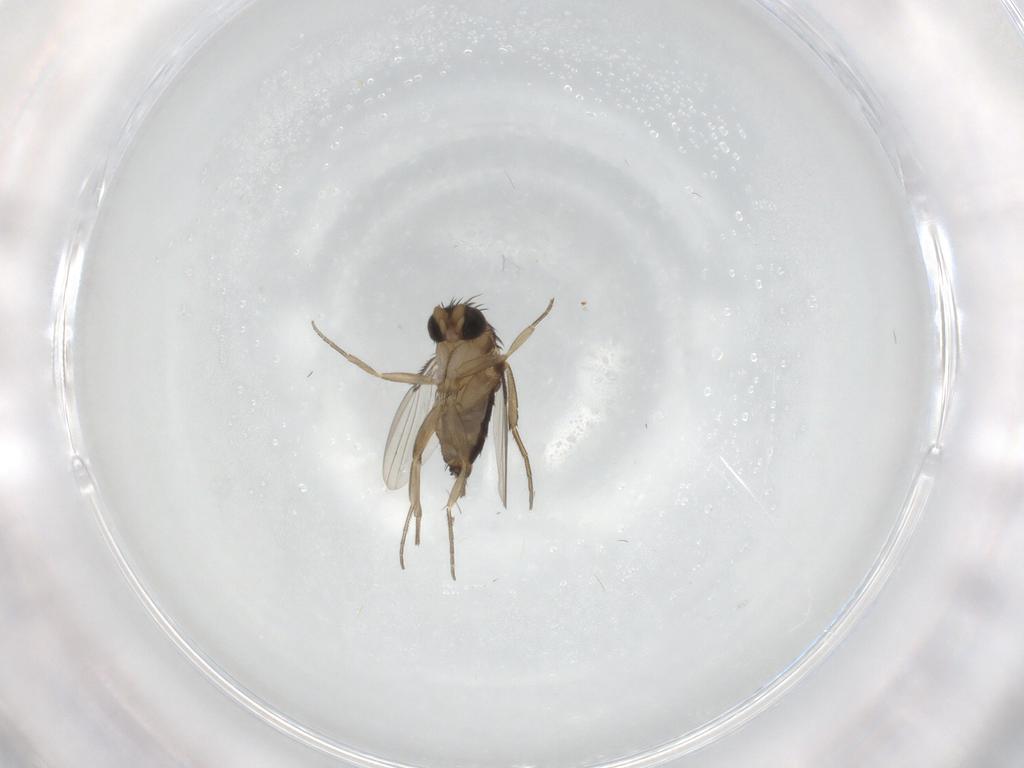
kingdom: Animalia
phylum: Arthropoda
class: Insecta
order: Diptera
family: Phoridae
